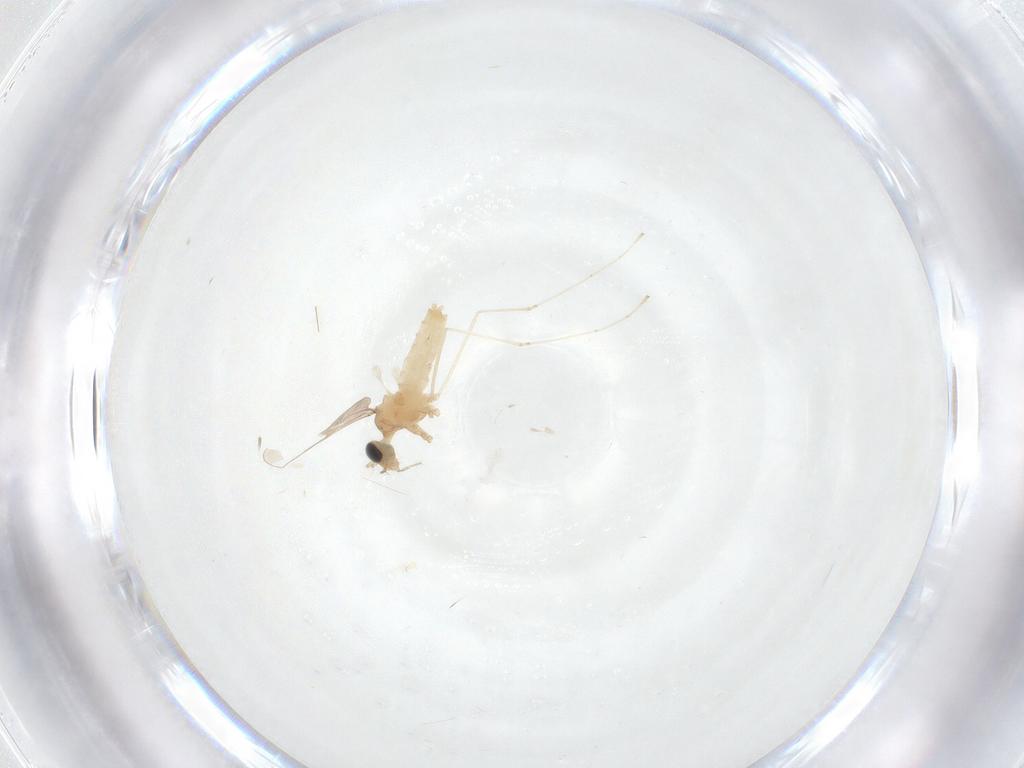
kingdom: Animalia
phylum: Arthropoda
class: Insecta
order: Diptera
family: Cecidomyiidae
